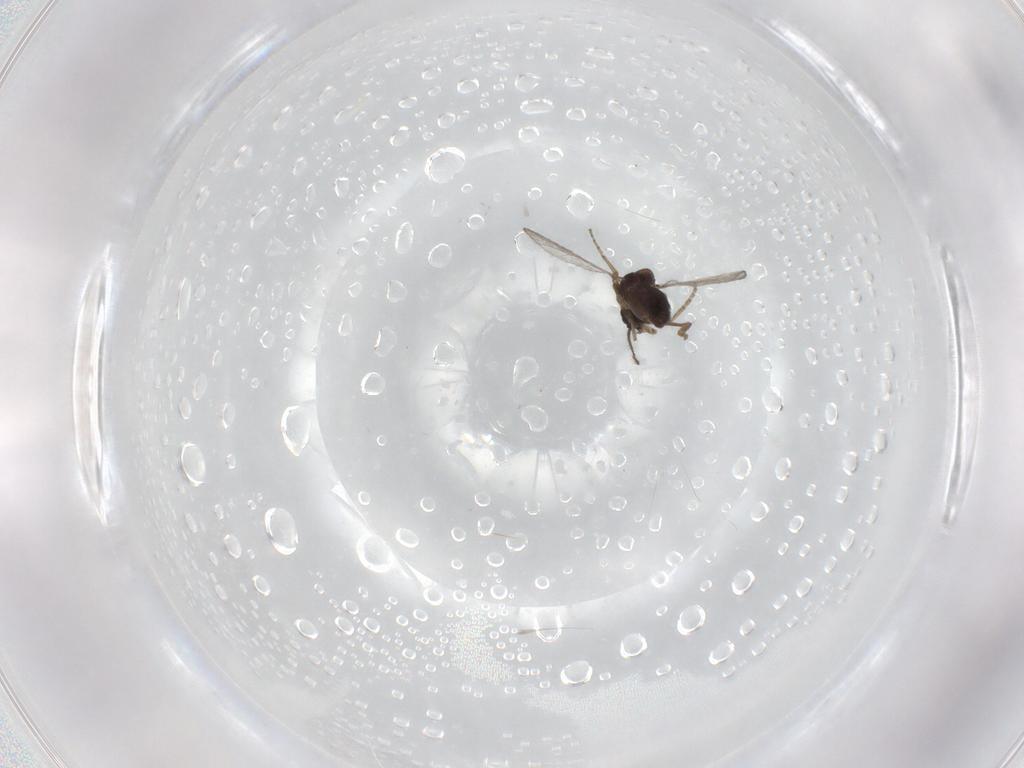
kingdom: Animalia
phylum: Arthropoda
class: Insecta
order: Diptera
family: Ceratopogonidae
